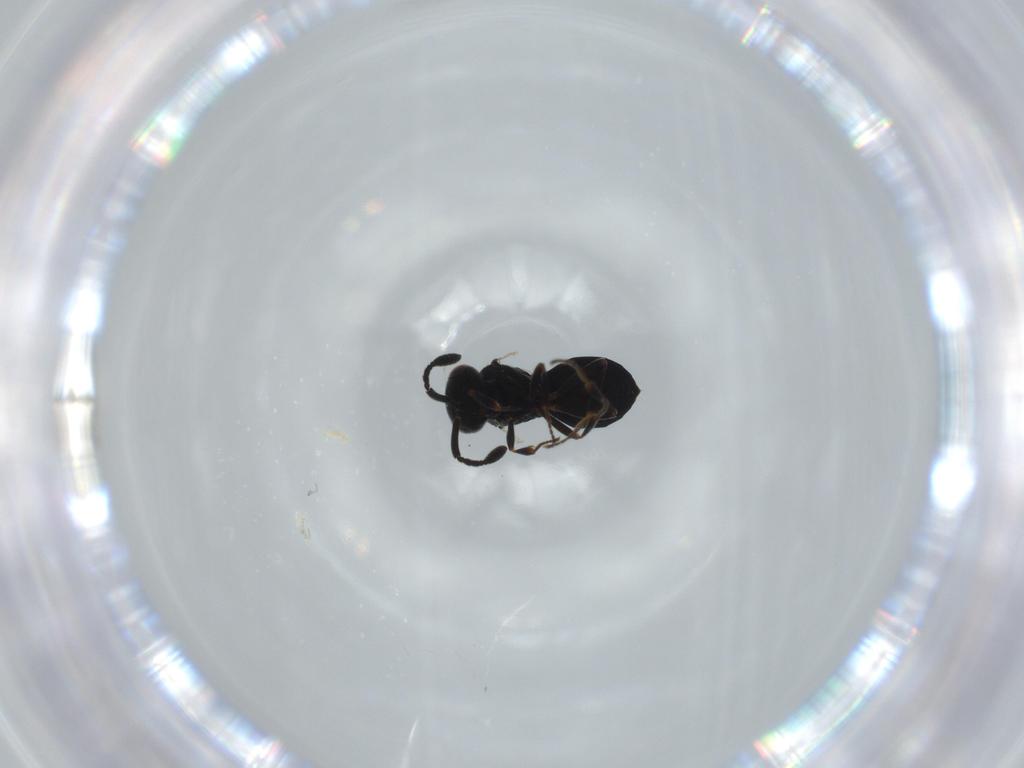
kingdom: Animalia
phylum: Arthropoda
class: Insecta
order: Hymenoptera
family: Scelionidae
